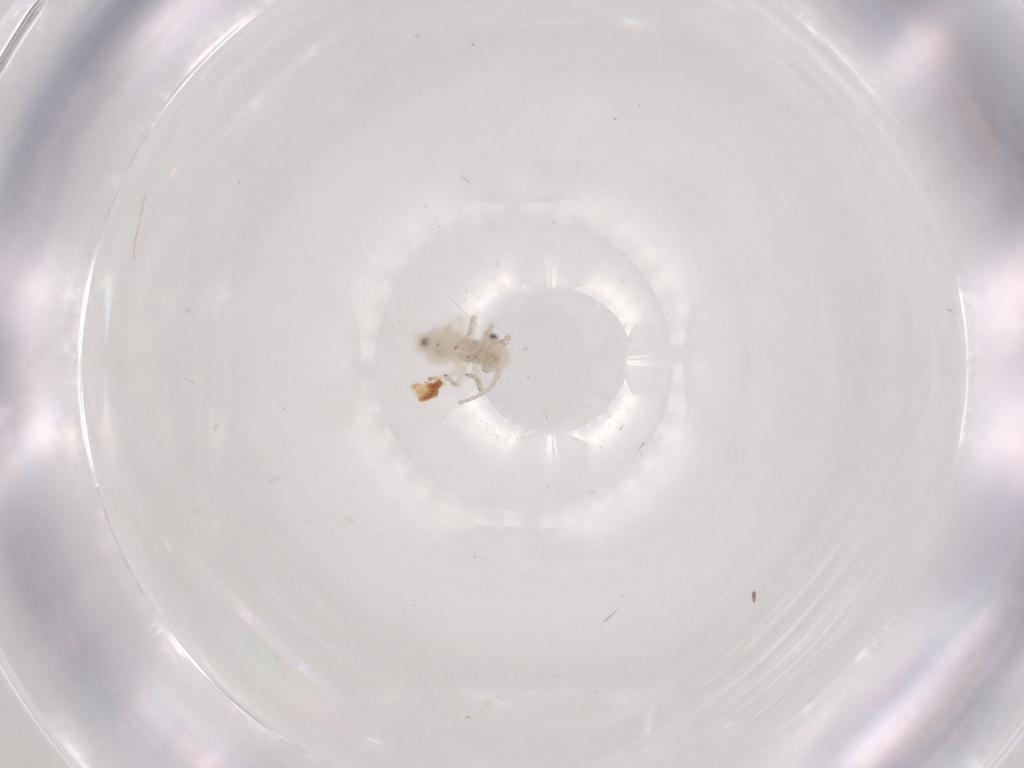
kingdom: Animalia
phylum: Arthropoda
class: Insecta
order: Psocodea
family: Caeciliusidae
